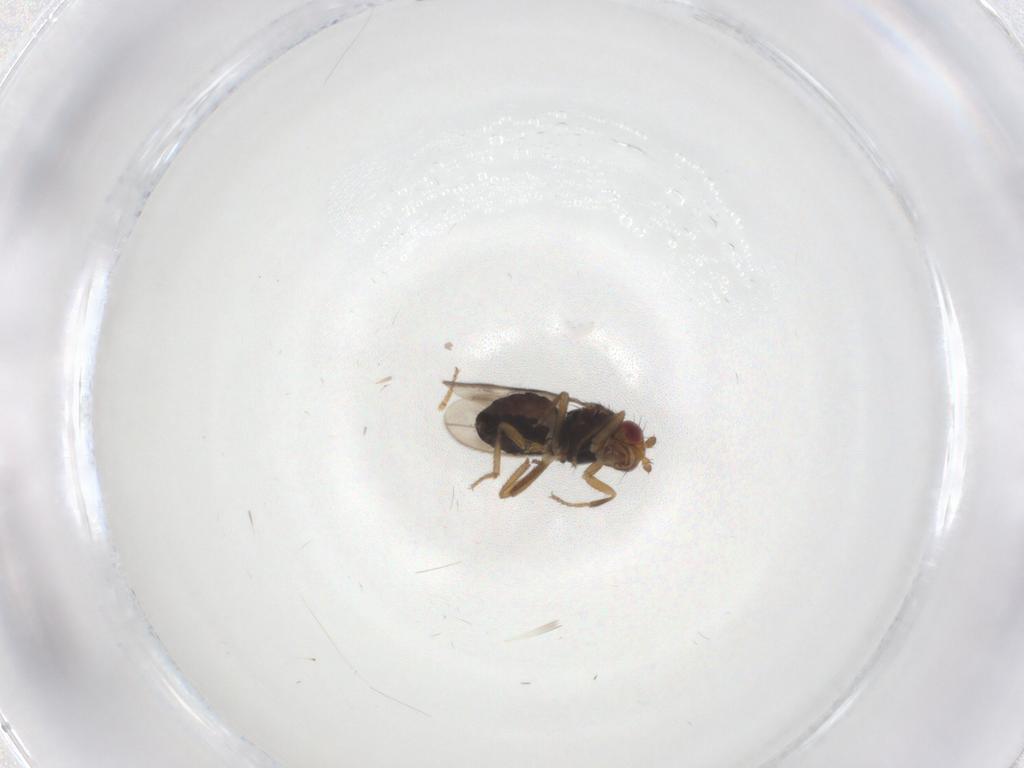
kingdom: Animalia
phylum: Arthropoda
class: Insecta
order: Diptera
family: Sphaeroceridae
